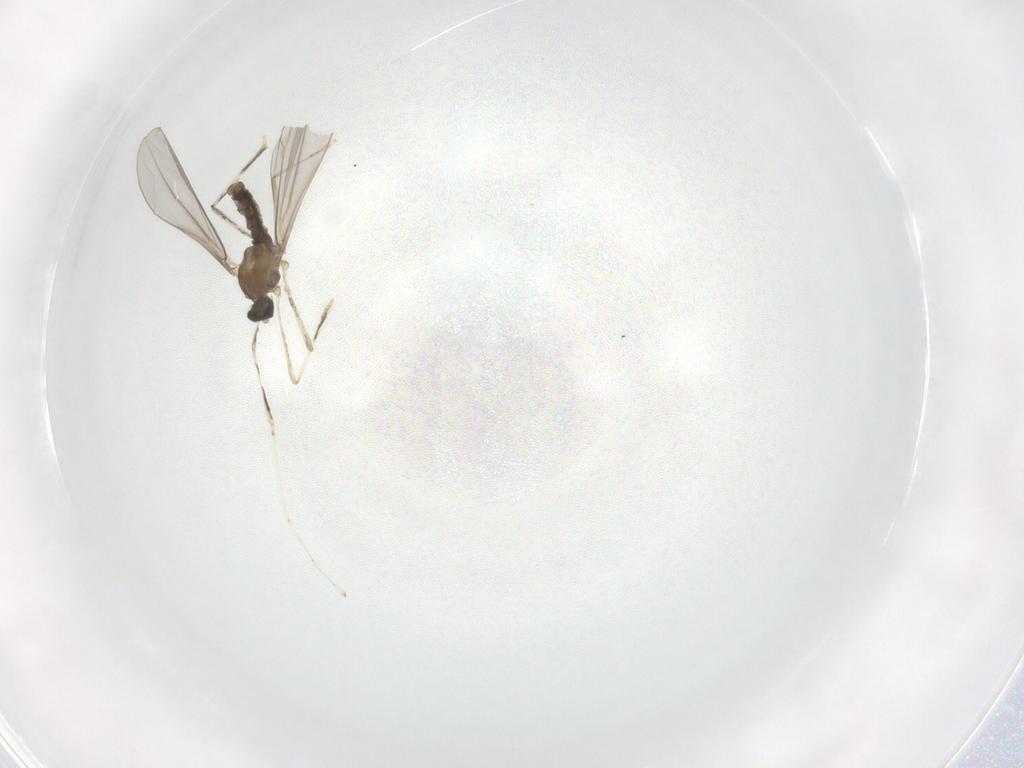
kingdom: Animalia
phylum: Arthropoda
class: Insecta
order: Diptera
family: Cecidomyiidae
